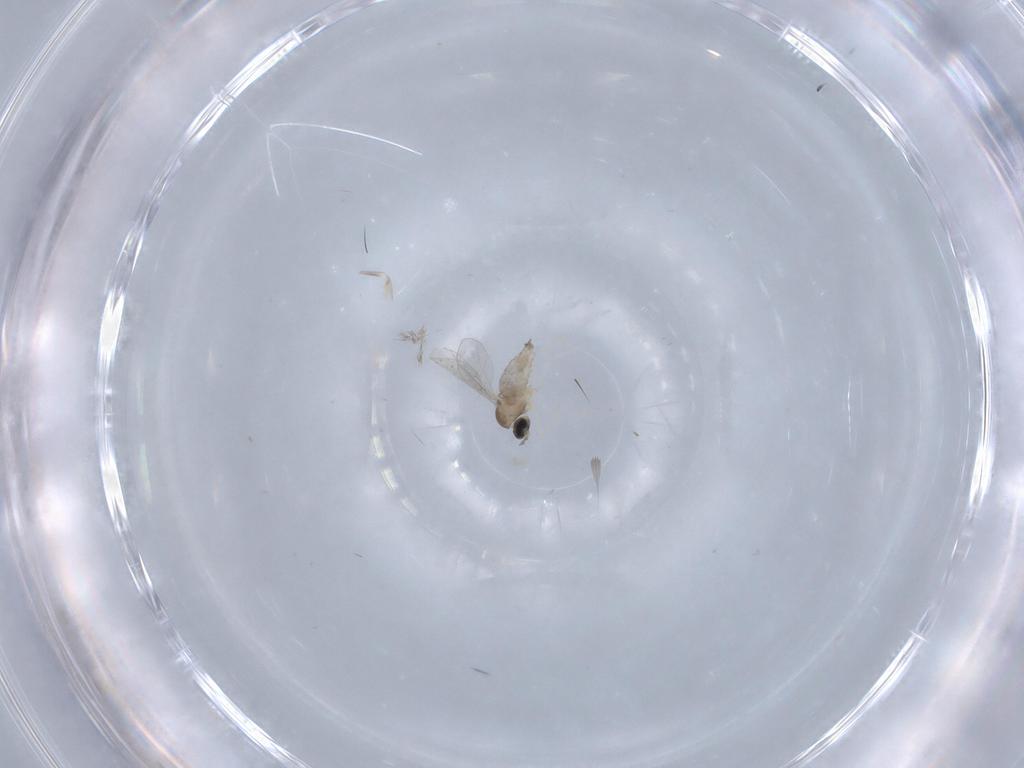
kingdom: Animalia
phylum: Arthropoda
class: Insecta
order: Diptera
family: Cecidomyiidae
